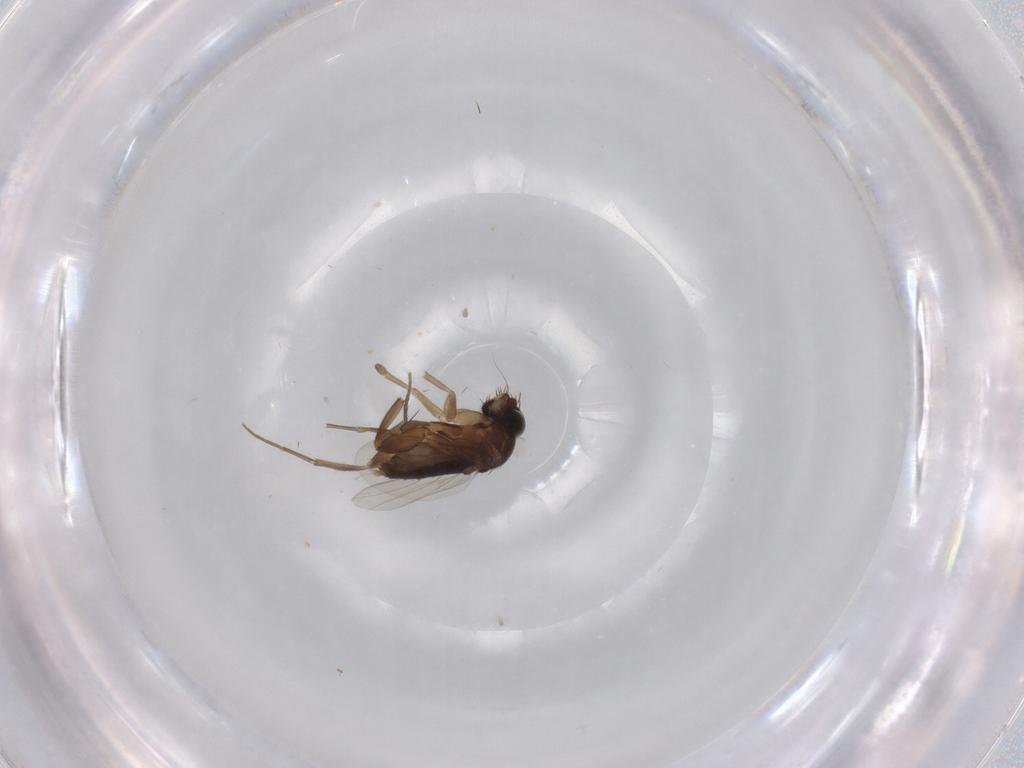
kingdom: Animalia
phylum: Arthropoda
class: Insecta
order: Diptera
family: Phoridae
